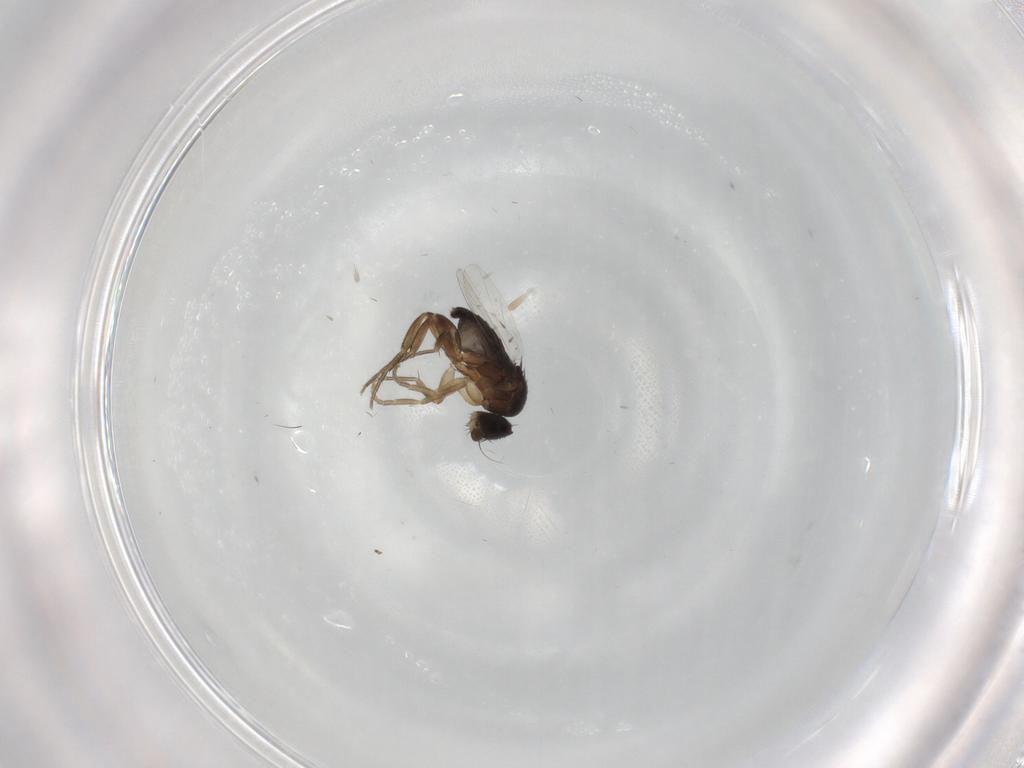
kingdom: Animalia
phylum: Arthropoda
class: Insecta
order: Diptera
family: Phoridae
